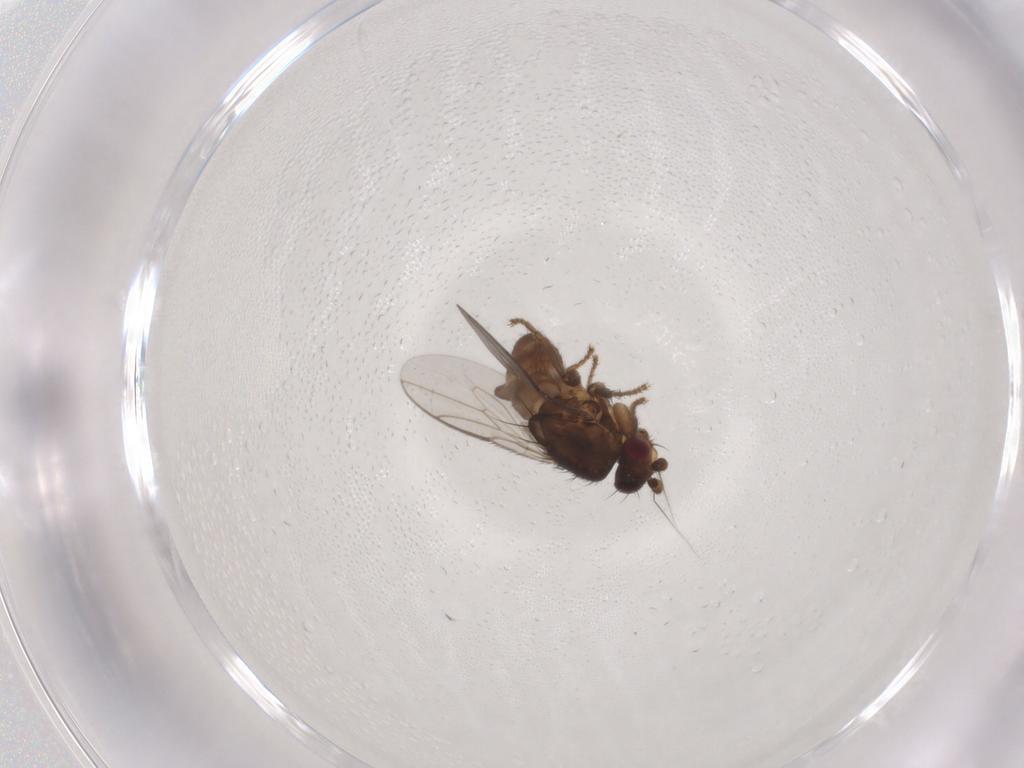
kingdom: Animalia
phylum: Arthropoda
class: Insecta
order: Diptera
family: Sphaeroceridae
